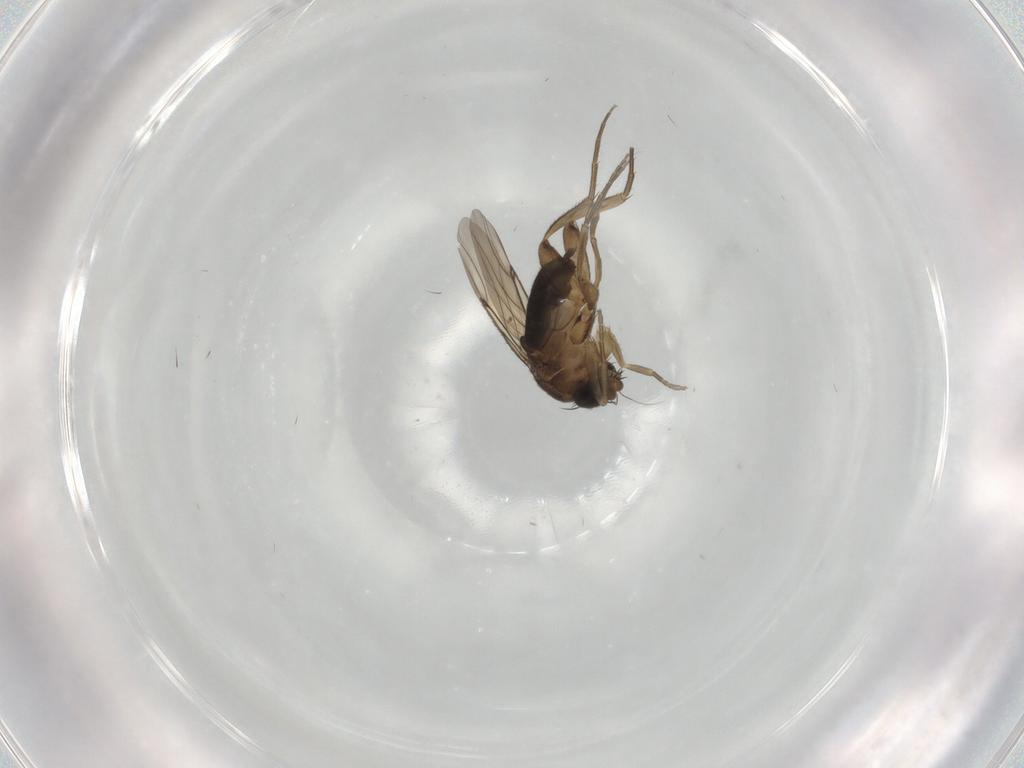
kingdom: Animalia
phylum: Arthropoda
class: Insecta
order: Diptera
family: Phoridae
